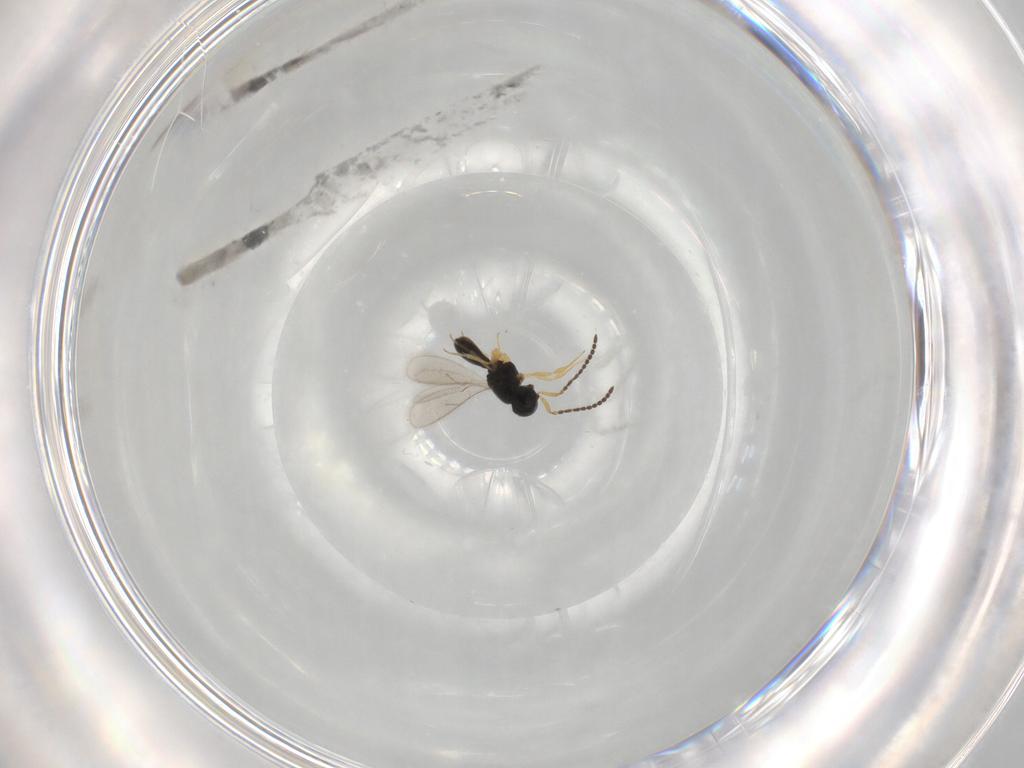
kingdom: Animalia
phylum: Arthropoda
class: Insecta
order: Hymenoptera
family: Scelionidae
